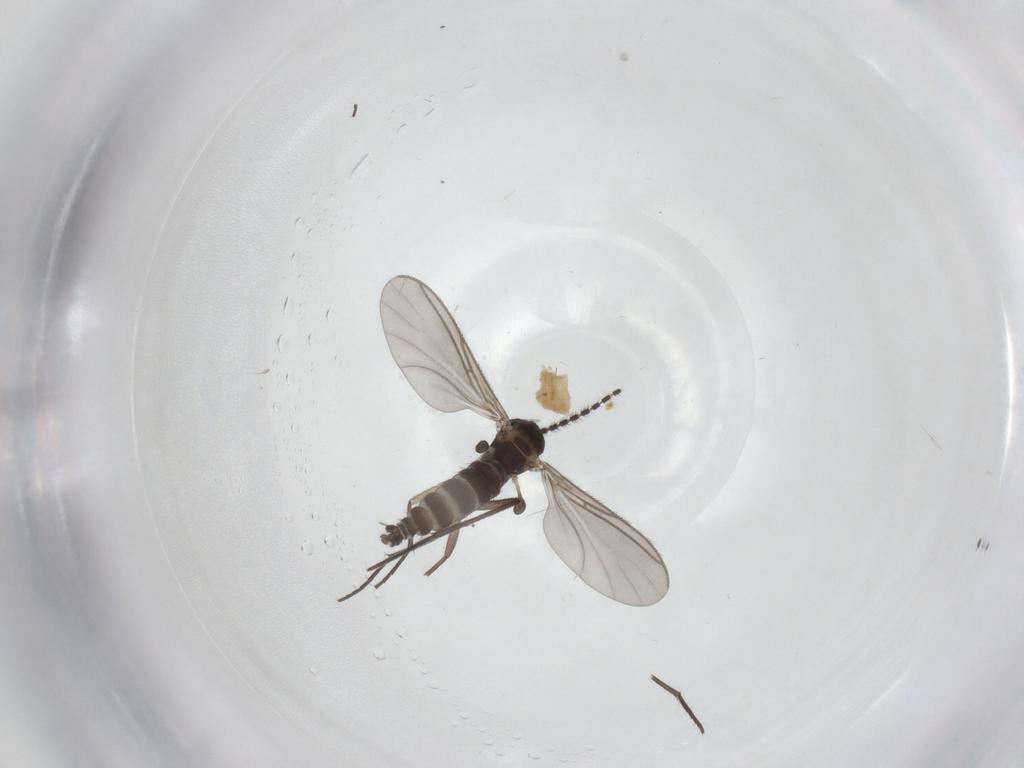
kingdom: Animalia
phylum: Arthropoda
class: Insecta
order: Diptera
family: Sciaridae
